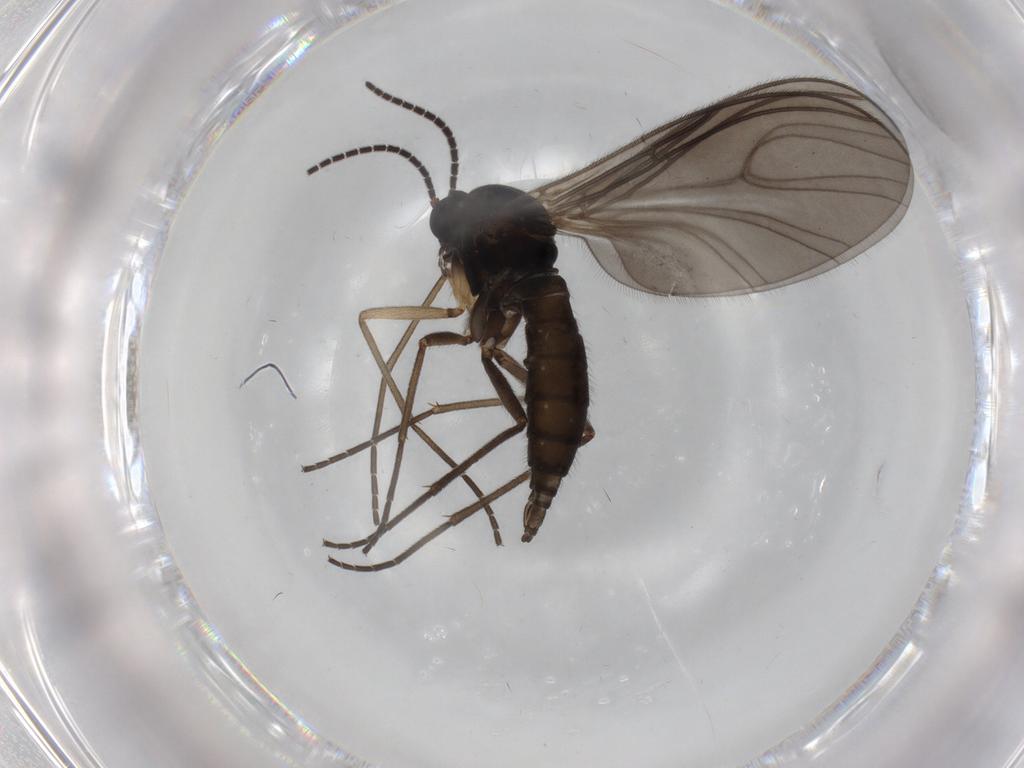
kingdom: Animalia
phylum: Arthropoda
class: Insecta
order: Diptera
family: Sciaridae
